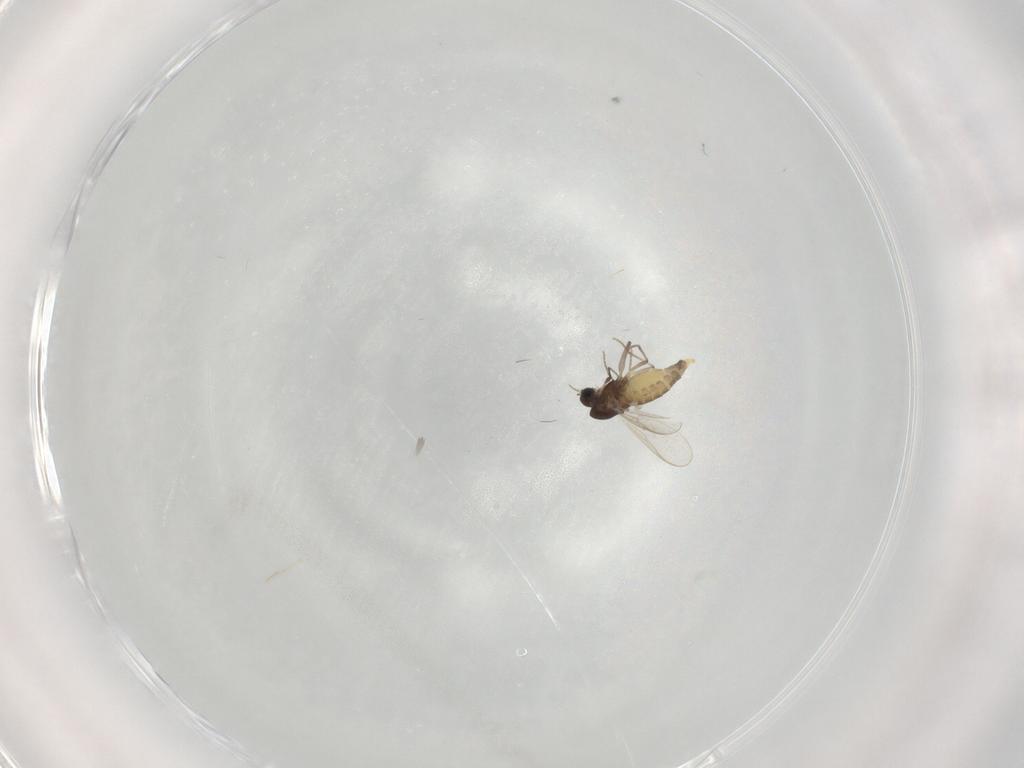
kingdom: Animalia
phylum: Arthropoda
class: Insecta
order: Diptera
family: Chironomidae
